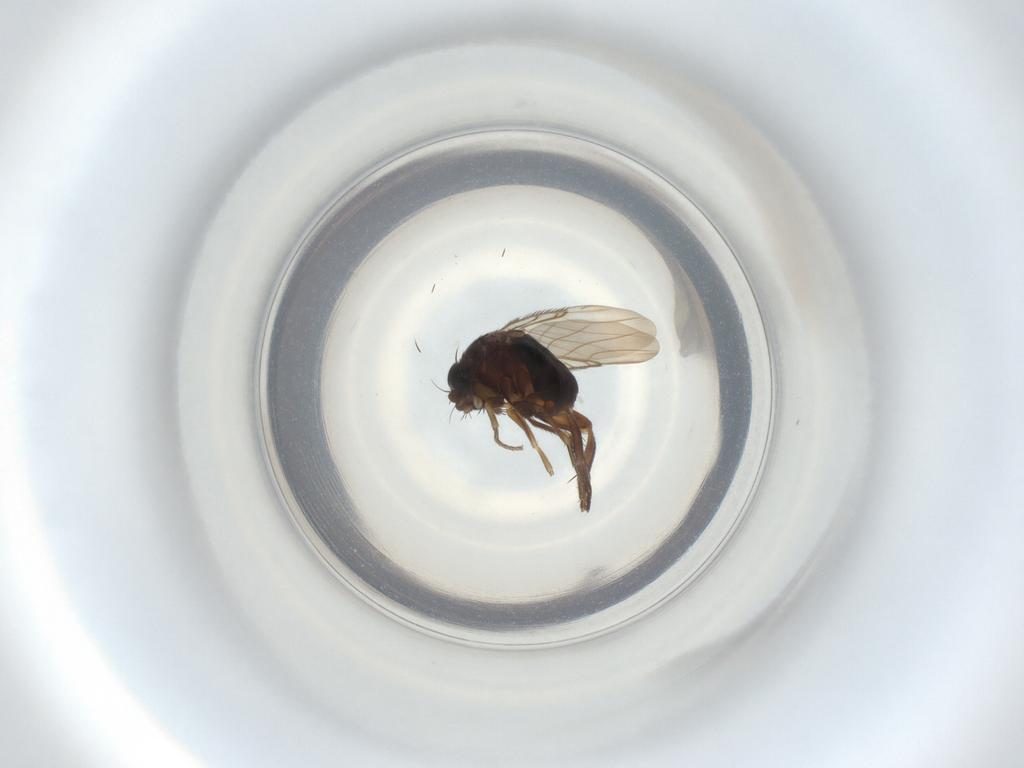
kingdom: Animalia
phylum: Arthropoda
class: Insecta
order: Diptera
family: Phoridae
